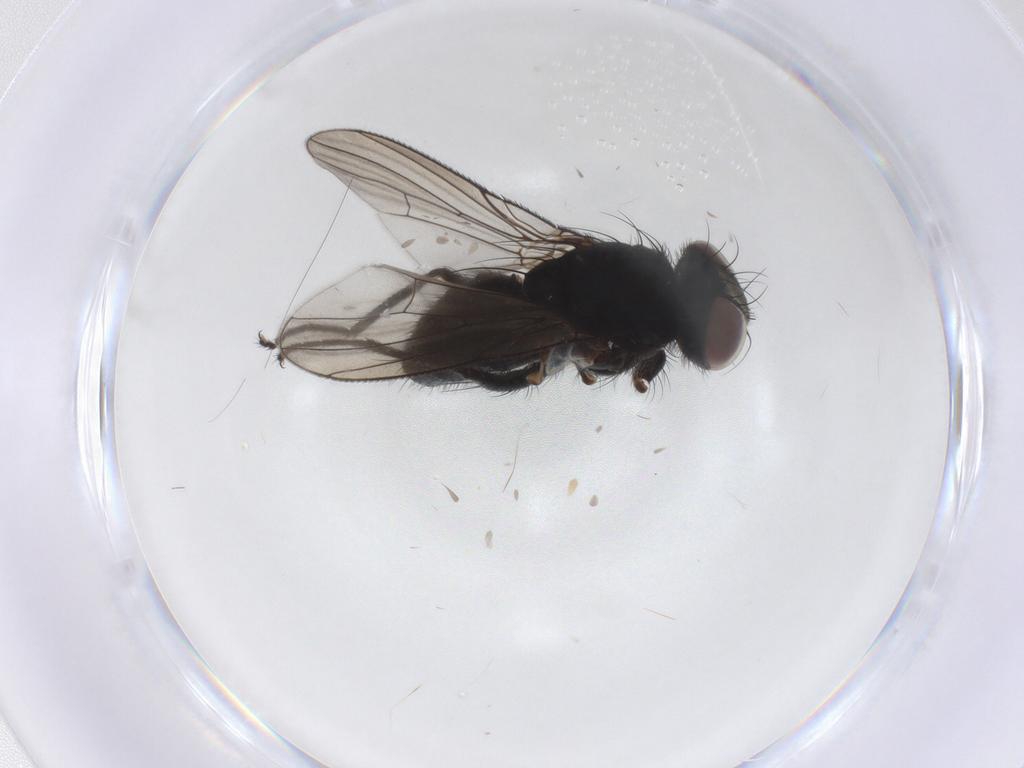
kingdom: Animalia
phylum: Arthropoda
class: Insecta
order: Diptera
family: Muscidae
